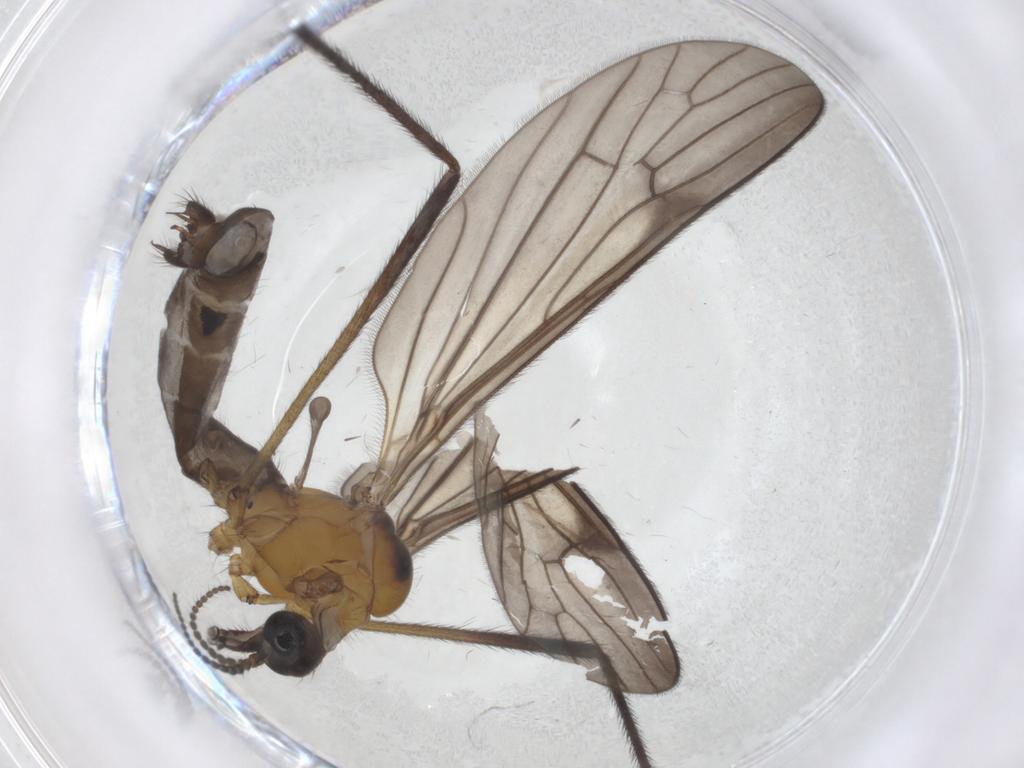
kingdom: Animalia
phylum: Arthropoda
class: Insecta
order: Diptera
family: Limoniidae
